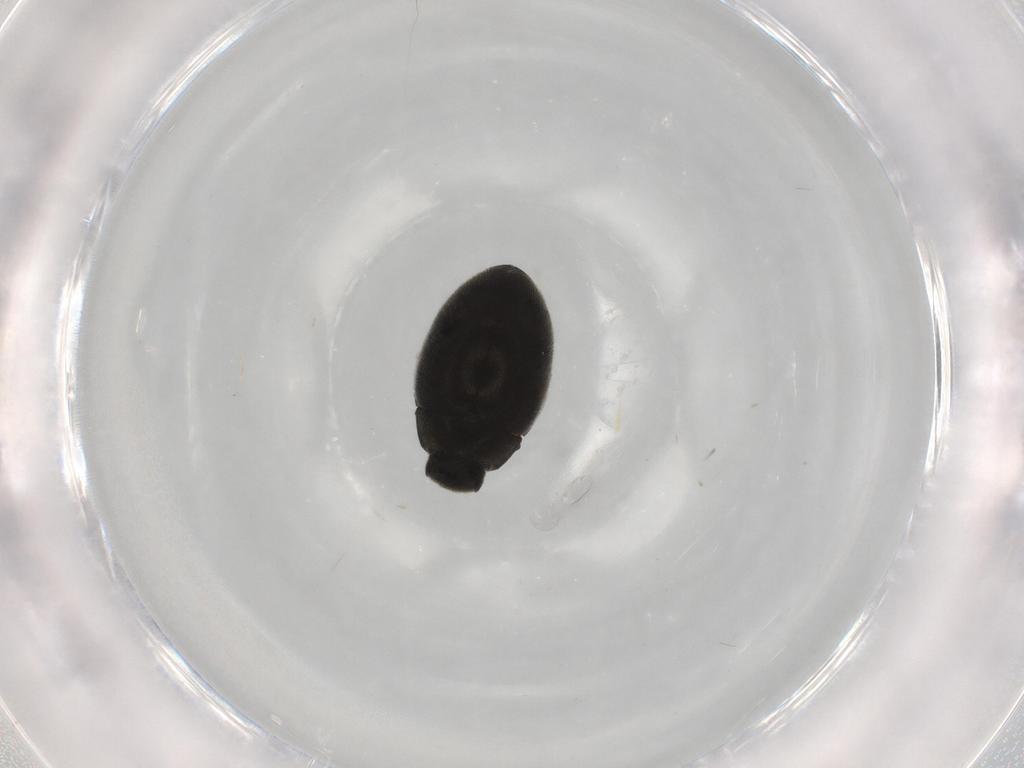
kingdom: Animalia
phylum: Arthropoda
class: Insecta
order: Coleoptera
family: Limnichidae
